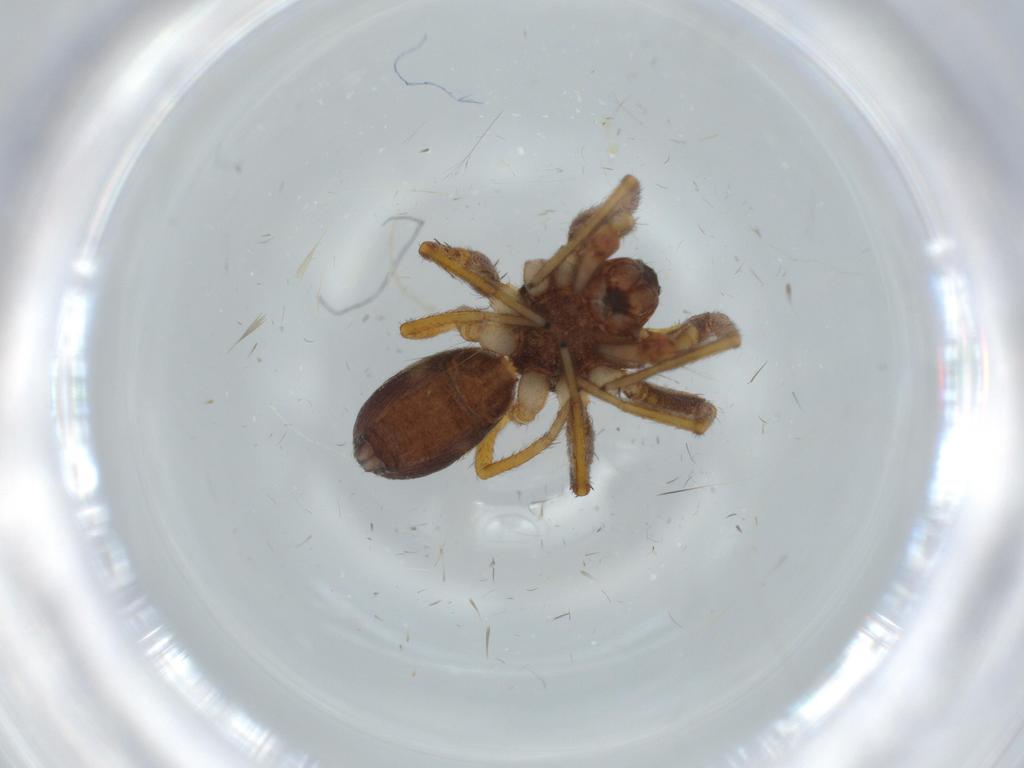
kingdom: Animalia
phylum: Arthropoda
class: Arachnida
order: Araneae
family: Corinnidae
